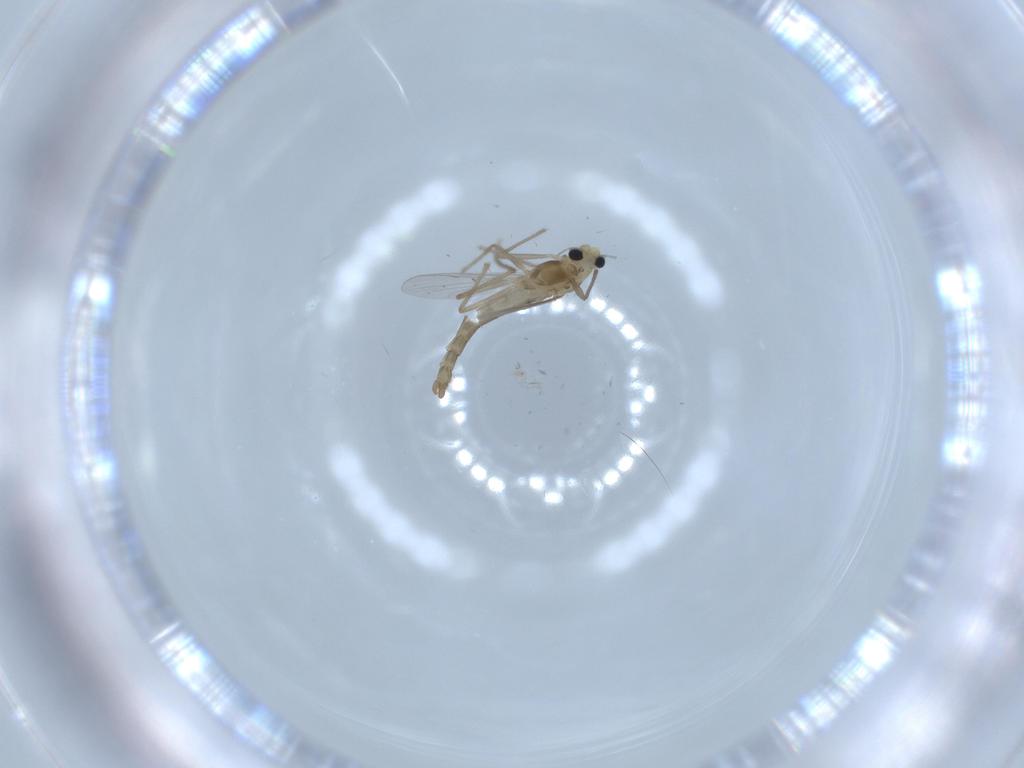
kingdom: Animalia
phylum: Arthropoda
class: Insecta
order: Diptera
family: Chironomidae
